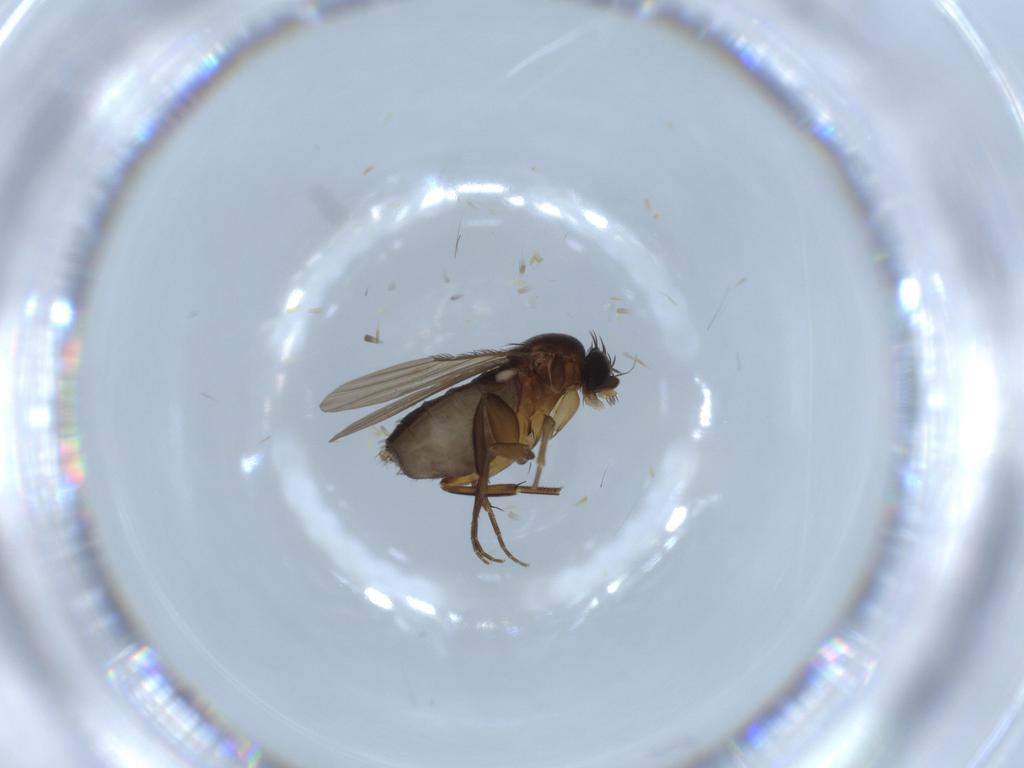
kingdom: Animalia
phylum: Arthropoda
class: Insecta
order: Diptera
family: Phoridae
